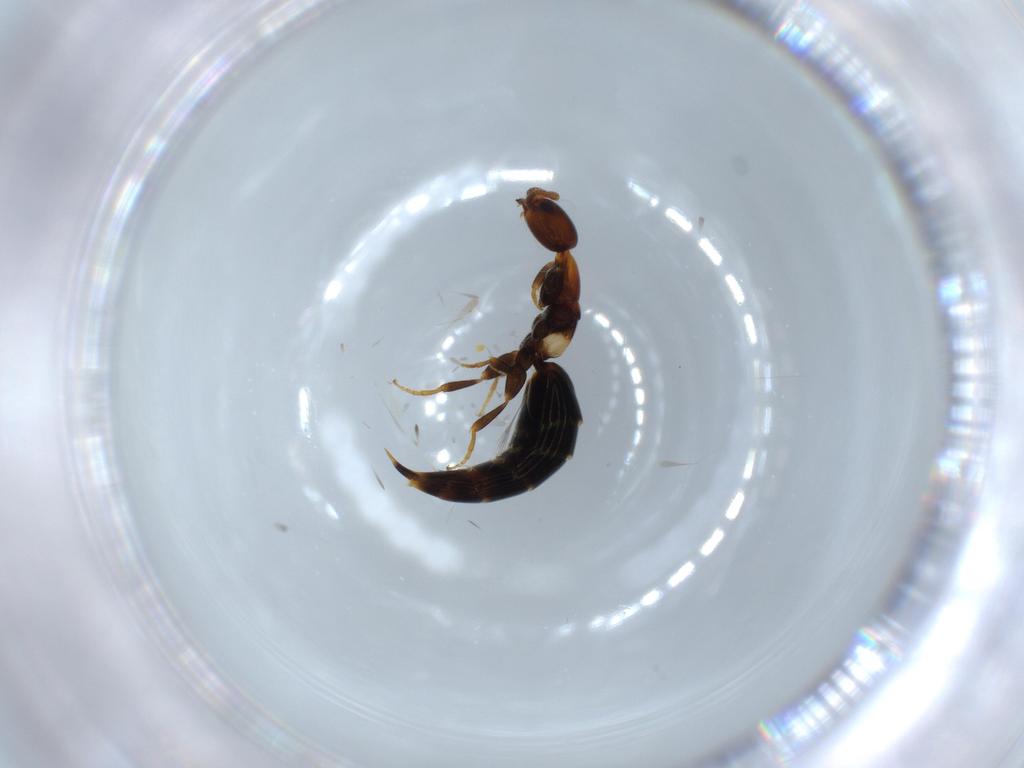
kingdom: Animalia
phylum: Arthropoda
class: Insecta
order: Hymenoptera
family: Bethylidae
